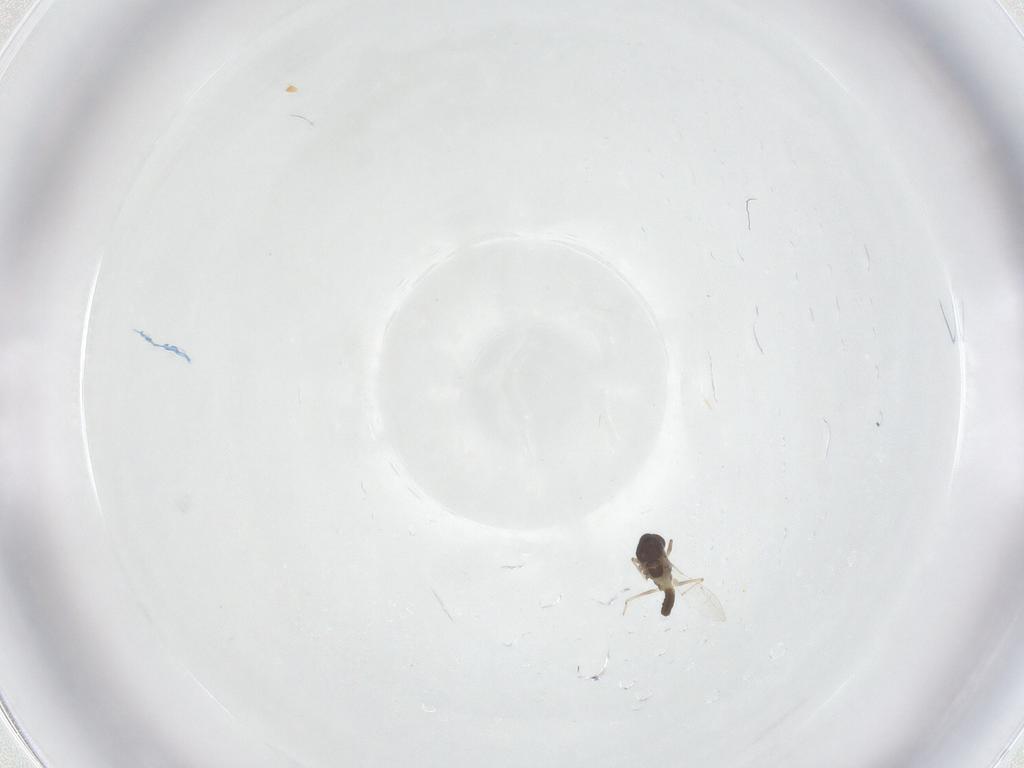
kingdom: Animalia
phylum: Arthropoda
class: Insecta
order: Diptera
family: Chironomidae
